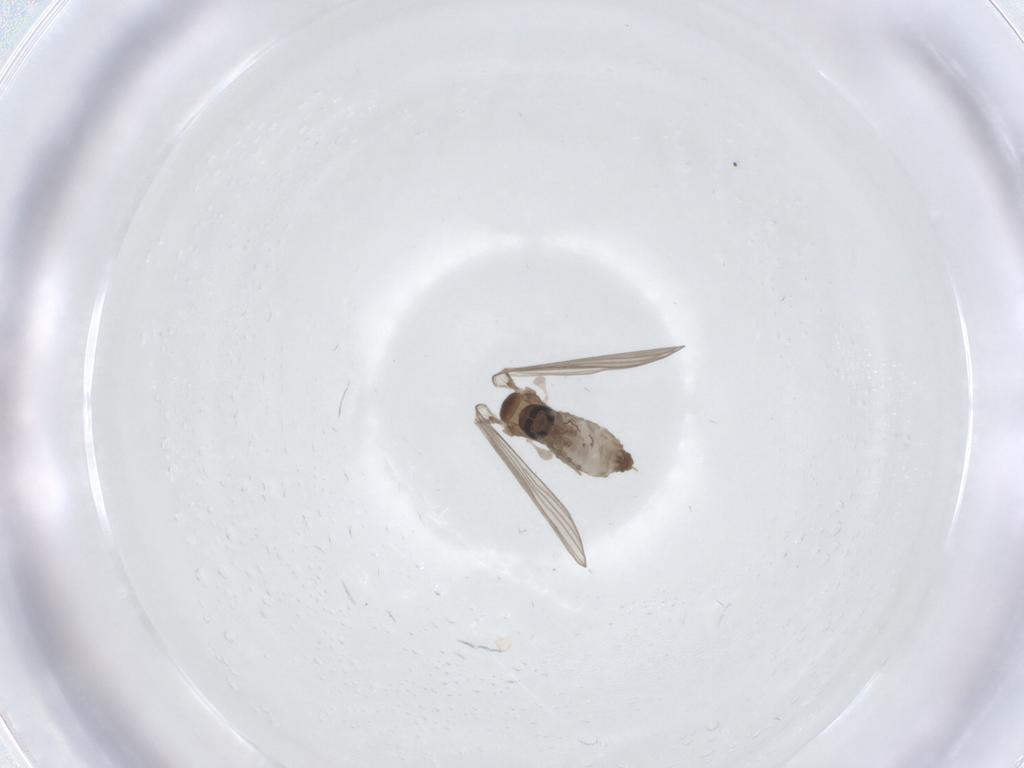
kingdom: Animalia
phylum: Arthropoda
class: Insecta
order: Diptera
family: Psychodidae
